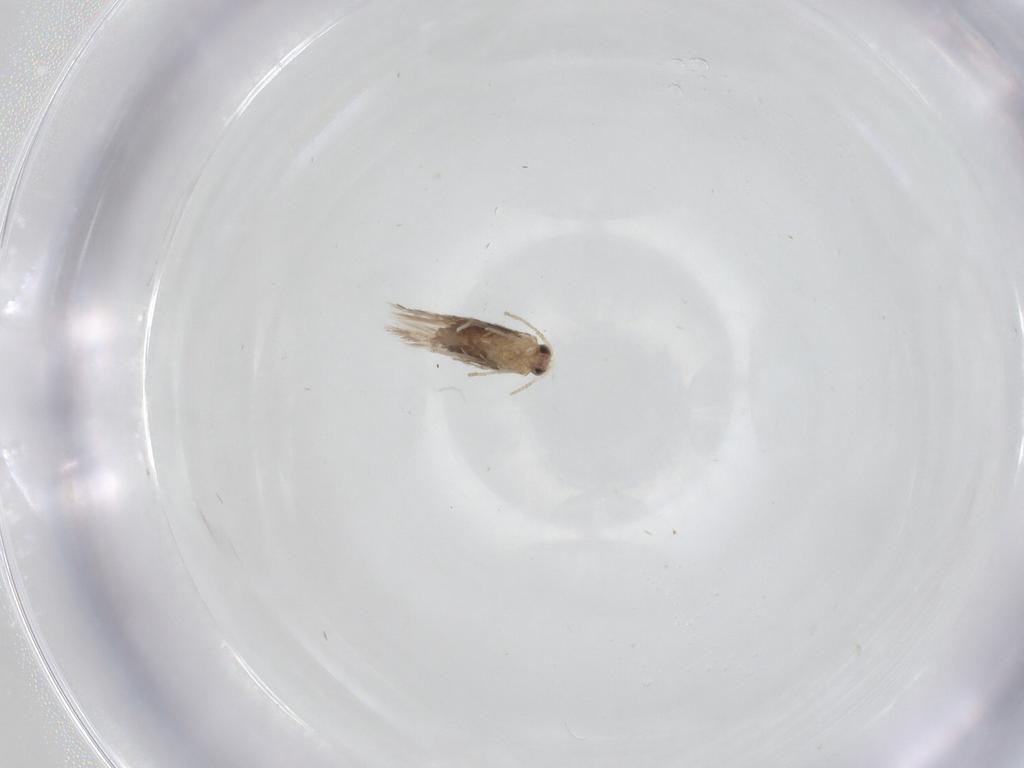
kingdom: Animalia
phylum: Arthropoda
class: Insecta
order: Lepidoptera
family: Nepticulidae
